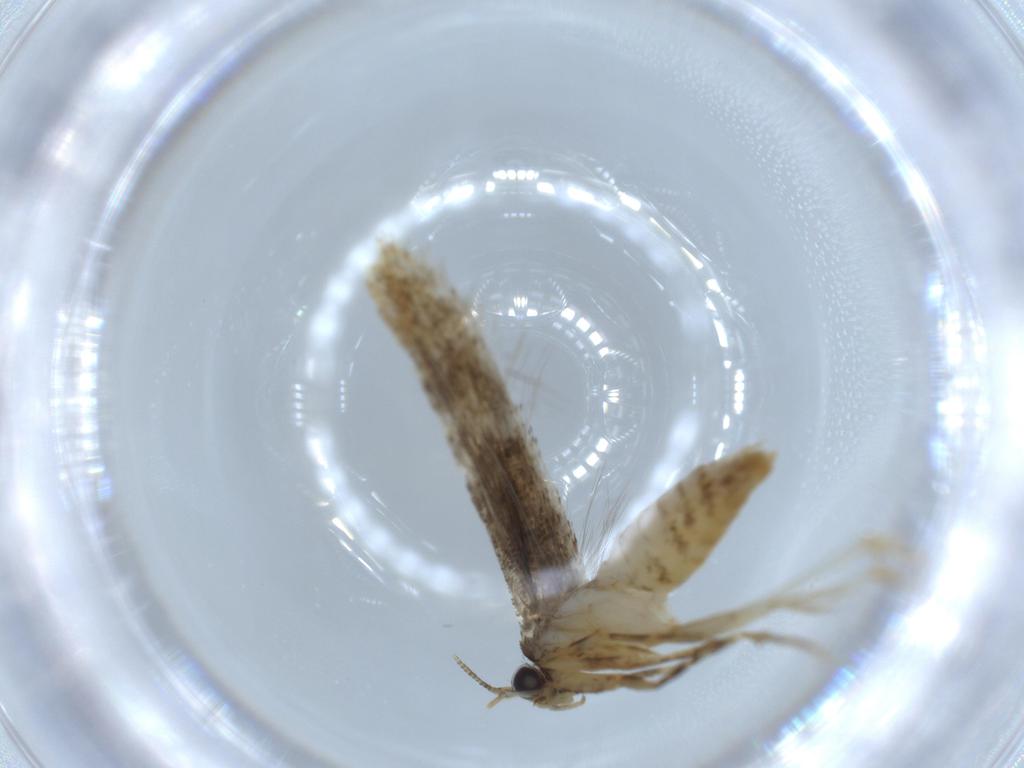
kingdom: Animalia
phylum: Arthropoda
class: Insecta
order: Lepidoptera
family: Tineidae
